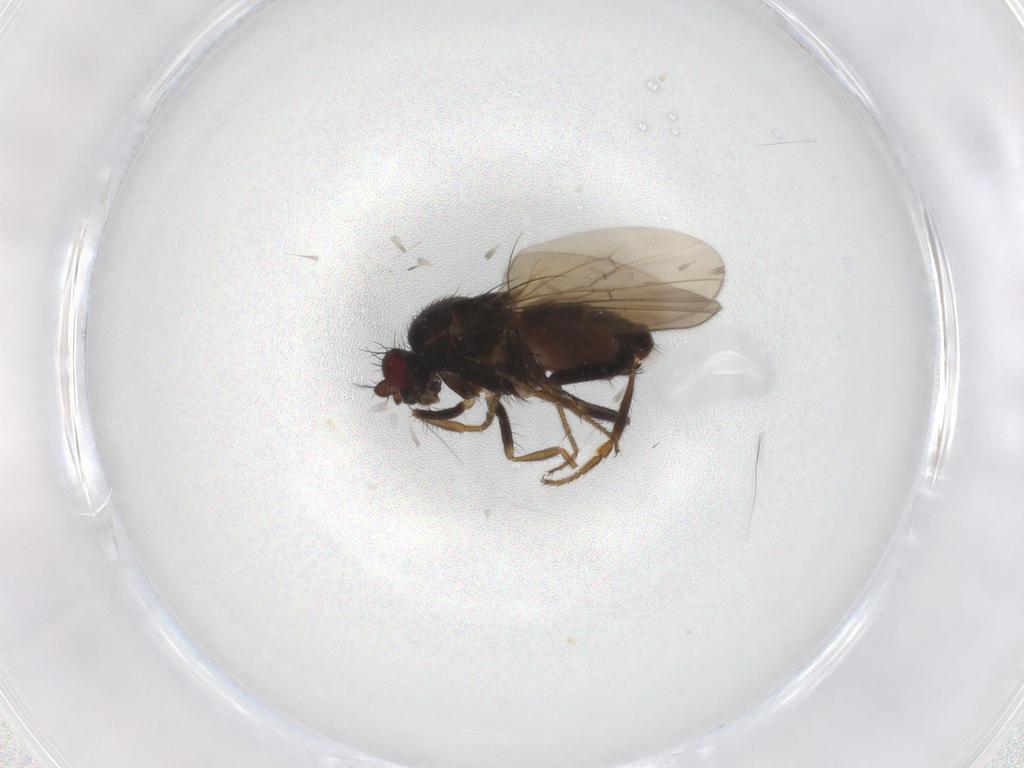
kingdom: Animalia
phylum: Arthropoda
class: Insecta
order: Diptera
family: Sphaeroceridae
